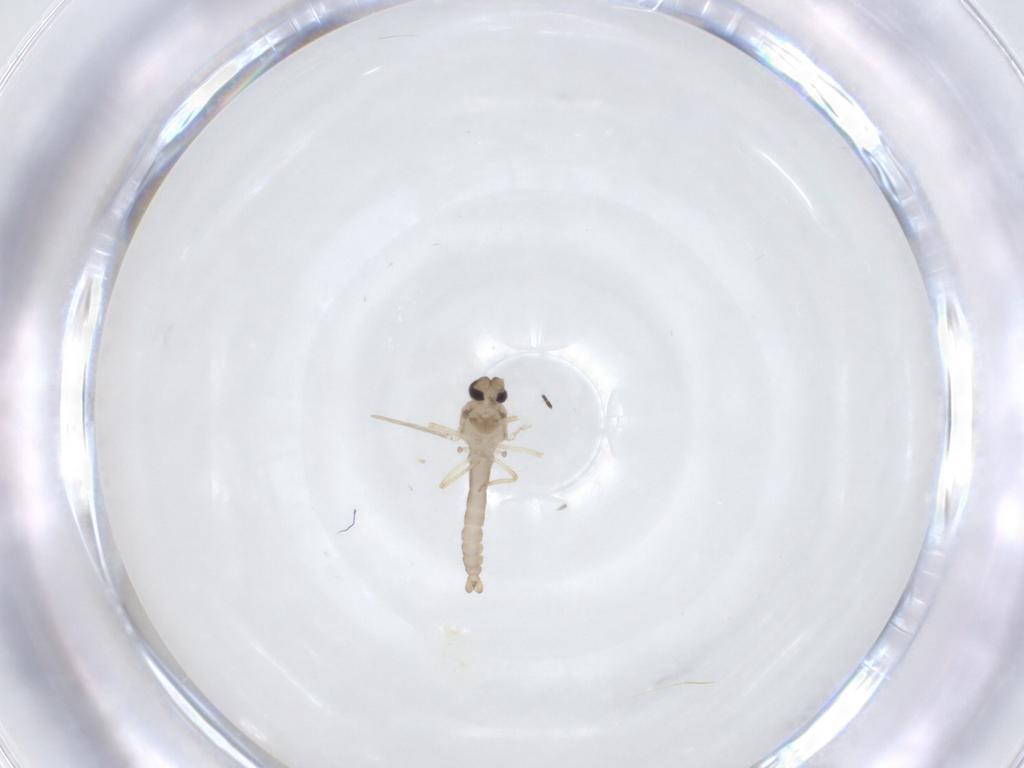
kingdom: Animalia
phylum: Arthropoda
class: Insecta
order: Diptera
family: Ceratopogonidae
